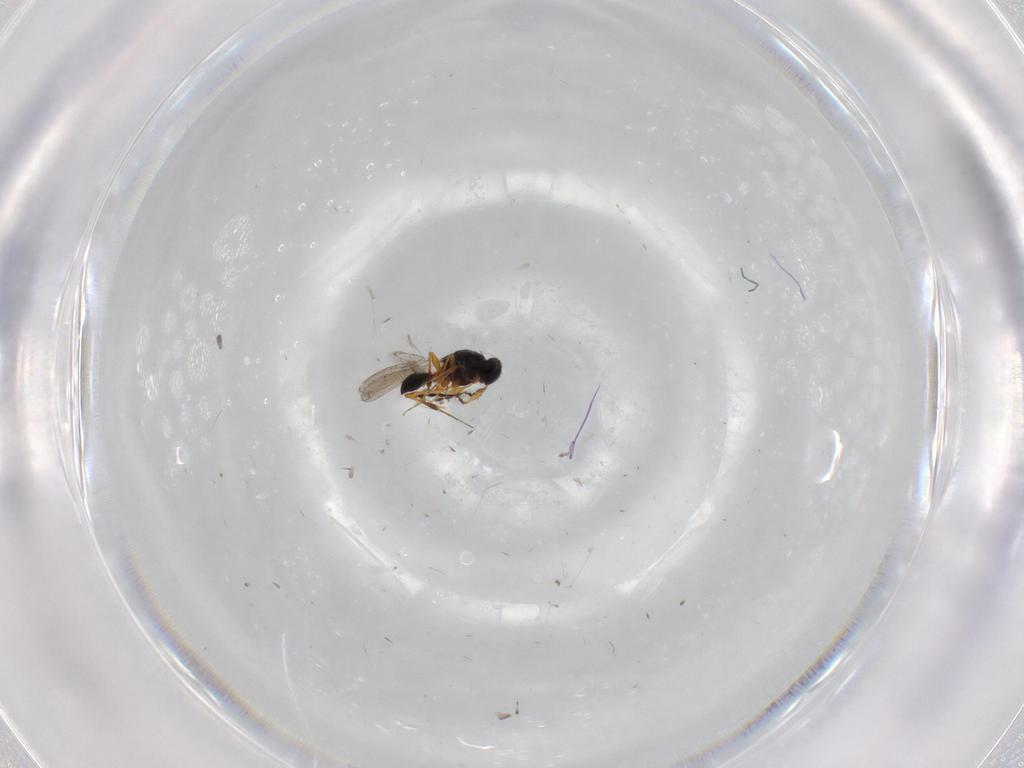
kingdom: Animalia
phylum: Arthropoda
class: Insecta
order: Hymenoptera
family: Platygastridae
